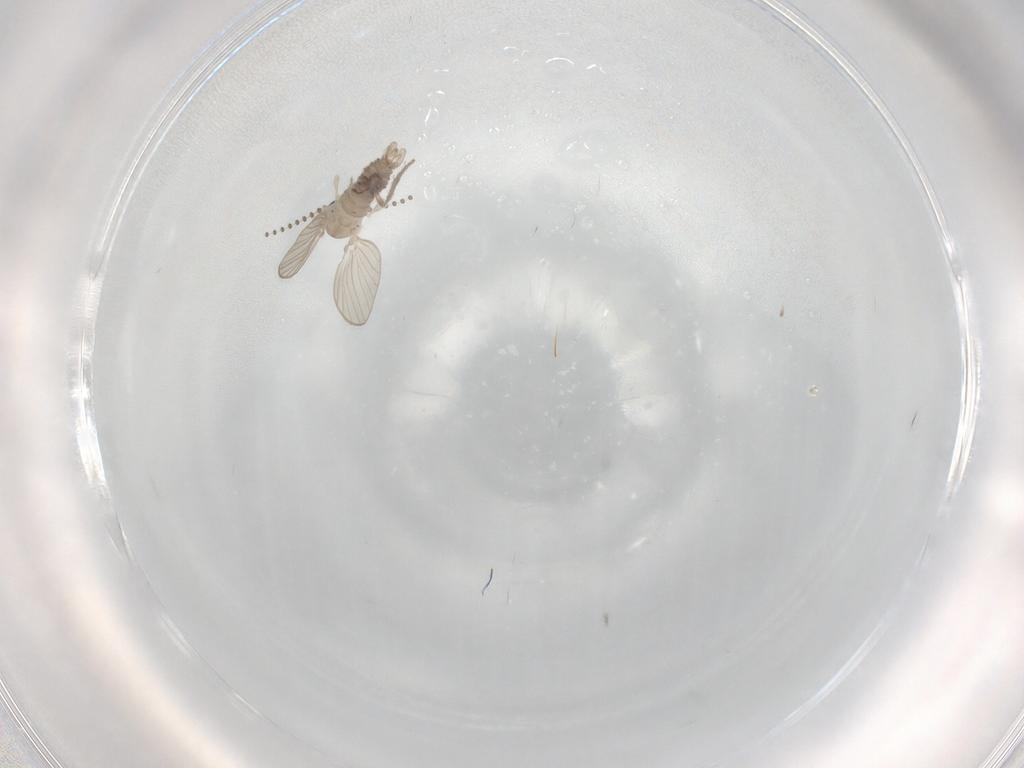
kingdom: Animalia
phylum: Arthropoda
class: Insecta
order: Diptera
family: Psychodidae
